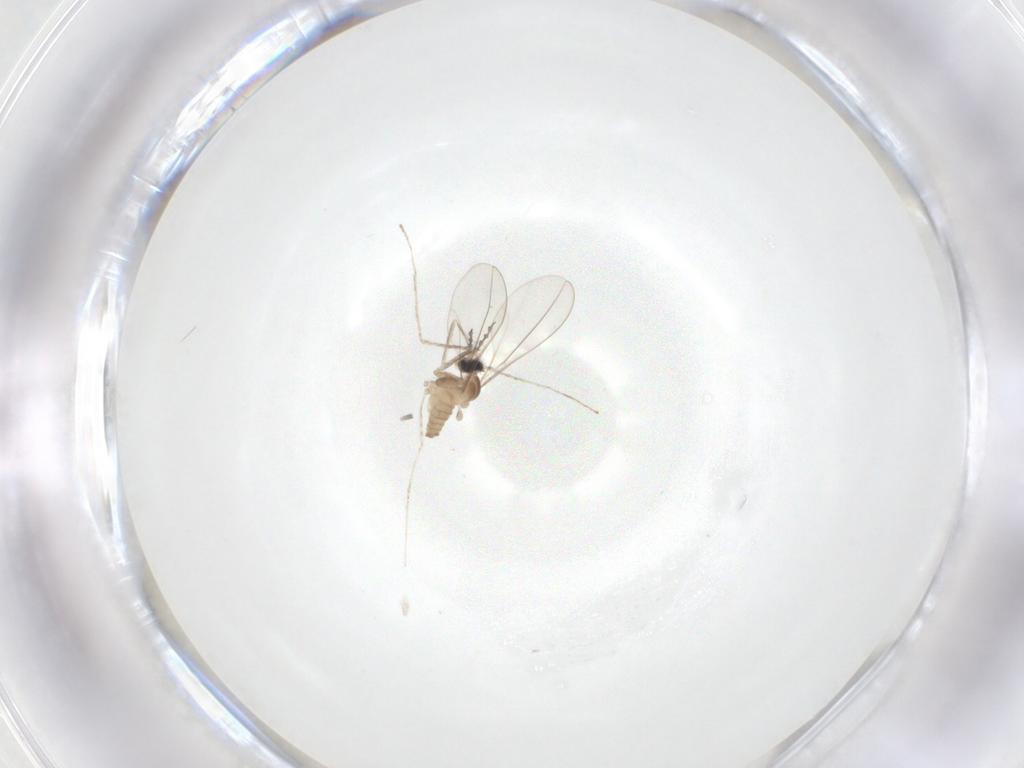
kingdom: Animalia
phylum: Arthropoda
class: Insecta
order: Diptera
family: Cecidomyiidae
